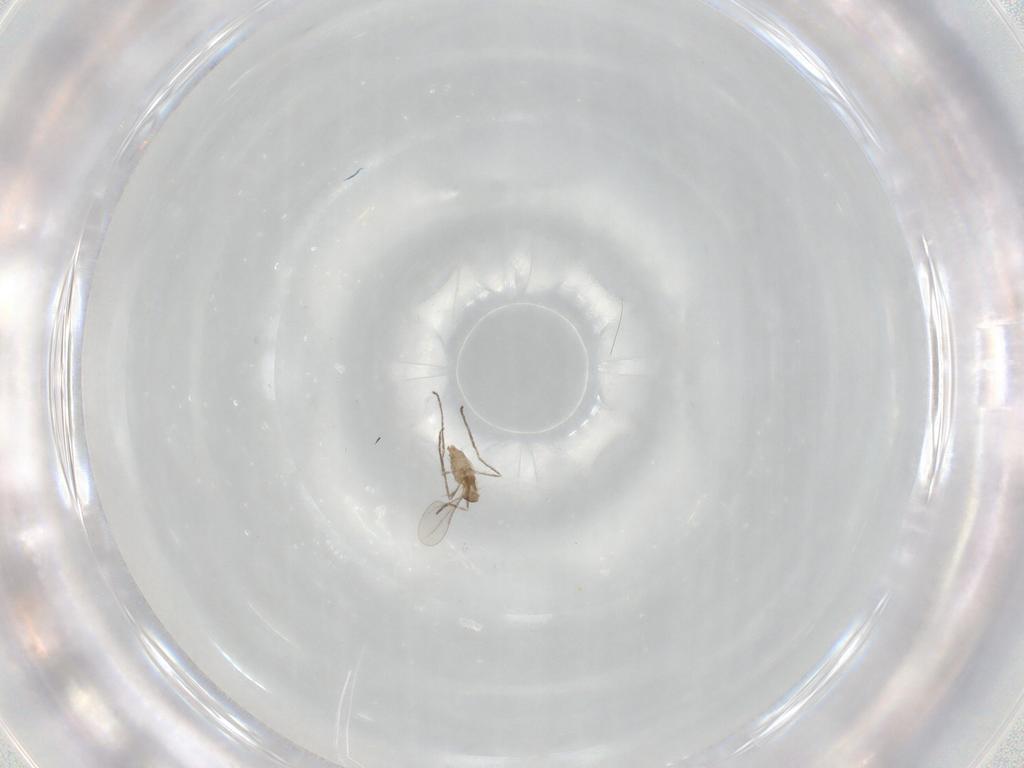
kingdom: Animalia
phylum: Arthropoda
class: Insecta
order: Diptera
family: Cecidomyiidae
